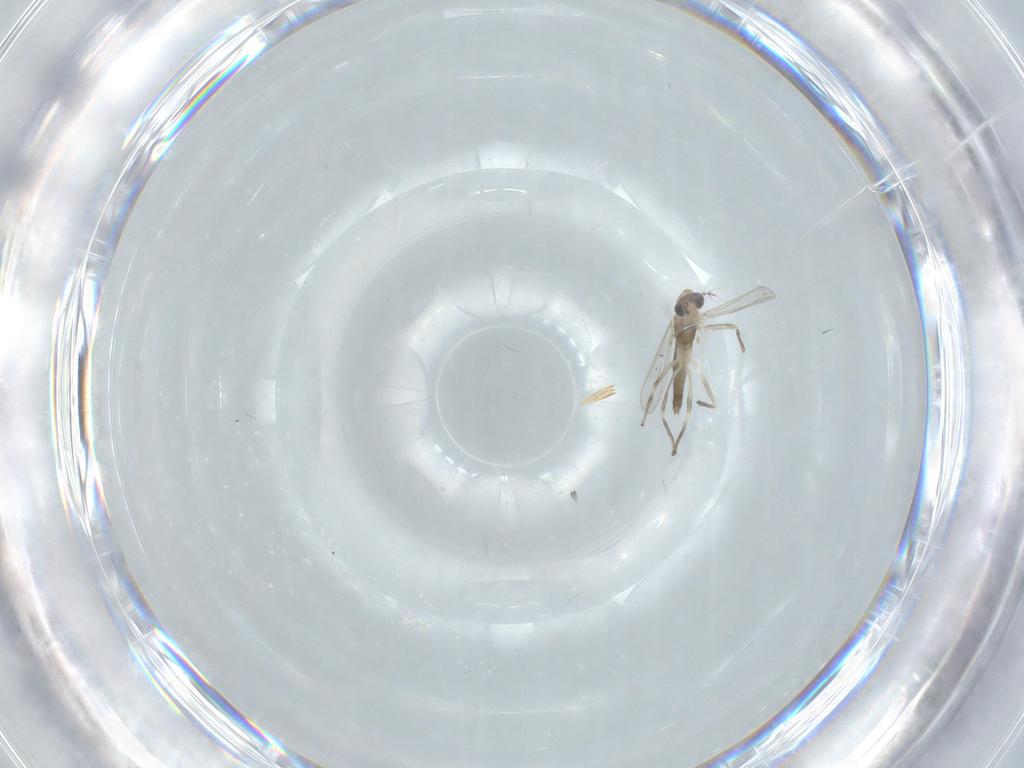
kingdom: Animalia
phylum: Arthropoda
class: Insecta
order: Diptera
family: Chironomidae
